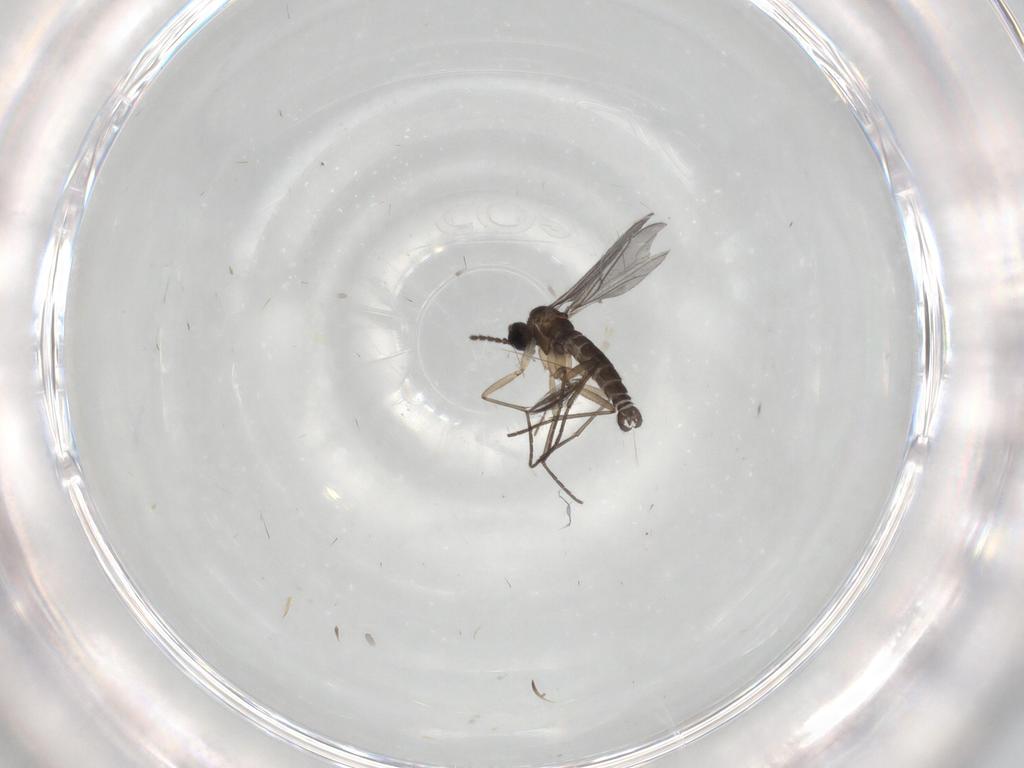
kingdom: Animalia
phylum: Arthropoda
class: Insecta
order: Diptera
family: Sciaridae
